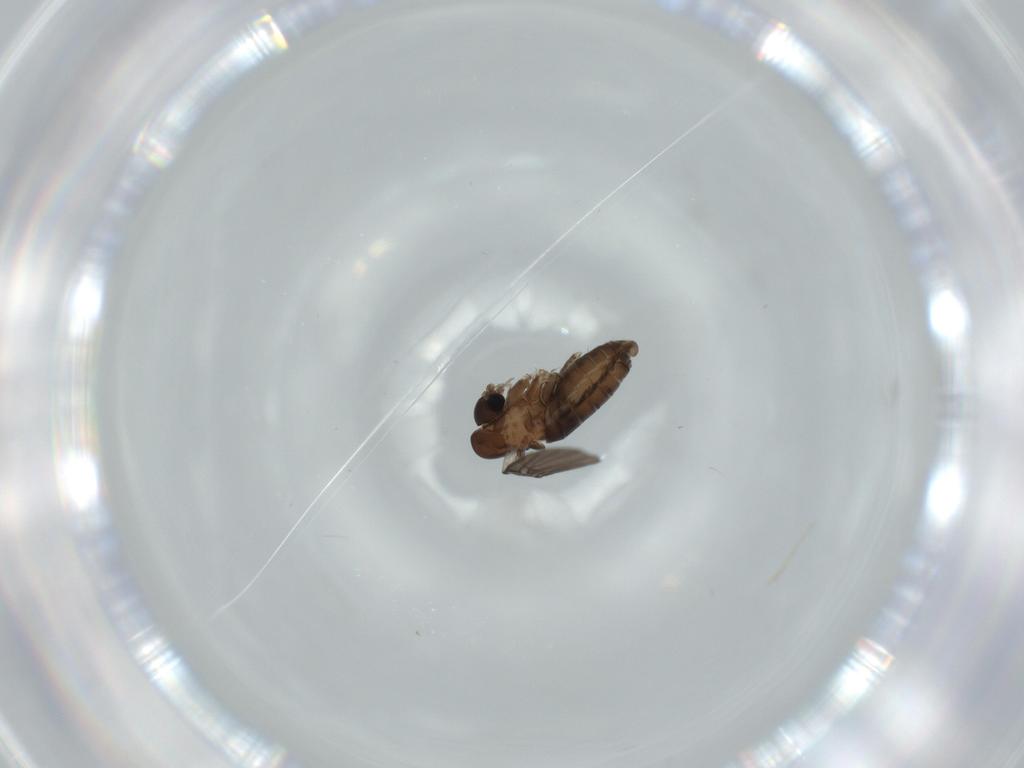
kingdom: Animalia
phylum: Arthropoda
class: Insecta
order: Diptera
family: Psychodidae
